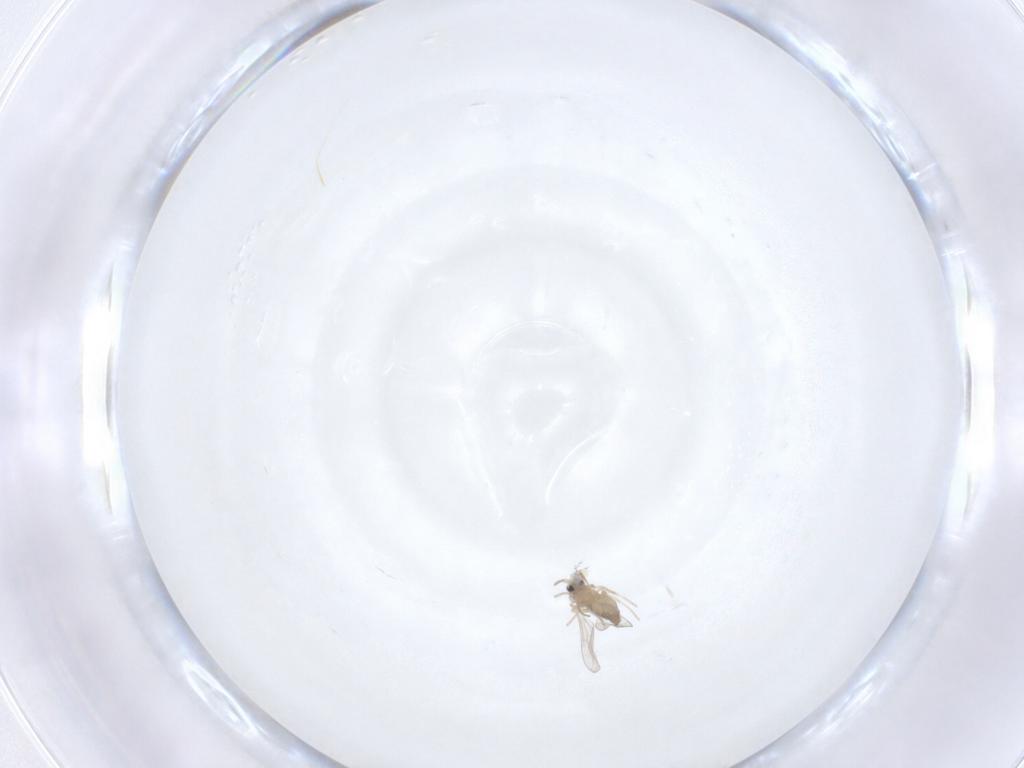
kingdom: Animalia
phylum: Arthropoda
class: Insecta
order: Diptera
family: Cecidomyiidae
